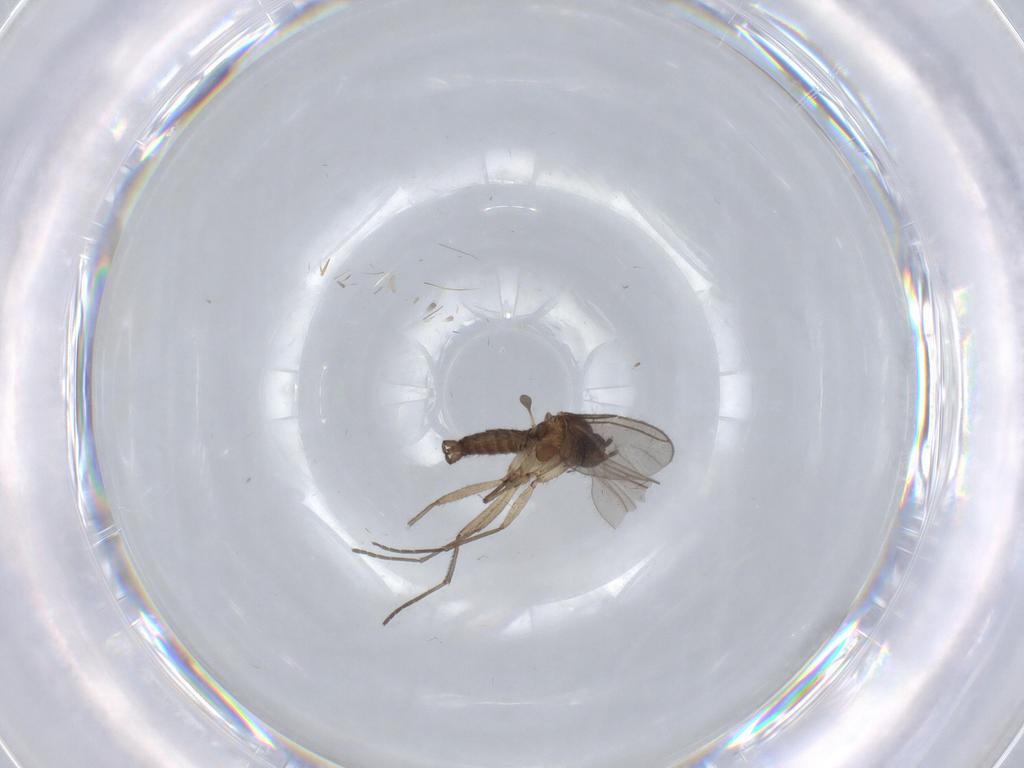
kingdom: Animalia
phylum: Arthropoda
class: Insecta
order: Diptera
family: Sciaridae
